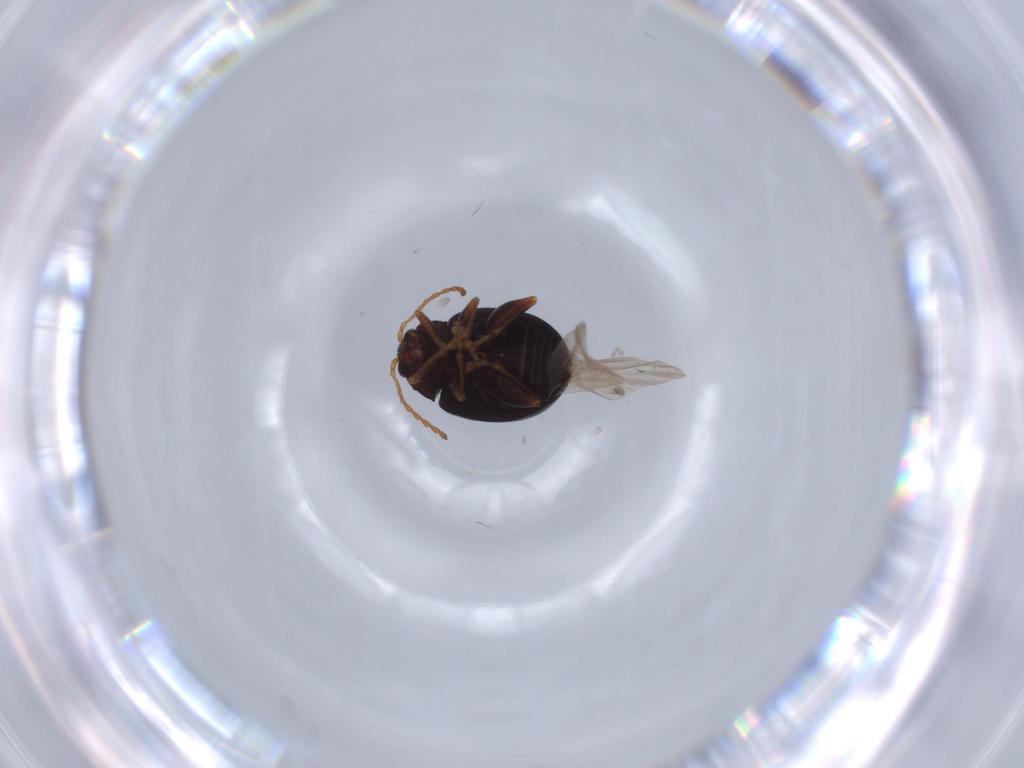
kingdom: Animalia
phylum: Arthropoda
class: Insecta
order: Coleoptera
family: Chrysomelidae
